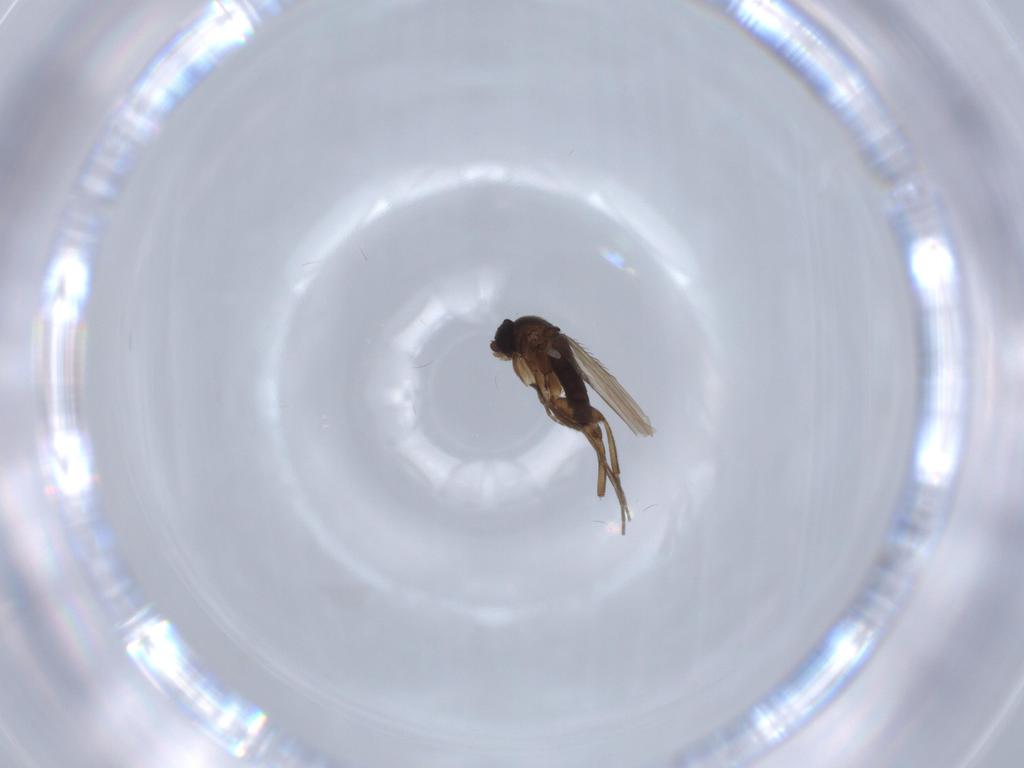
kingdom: Animalia
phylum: Arthropoda
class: Insecta
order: Diptera
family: Phoridae
